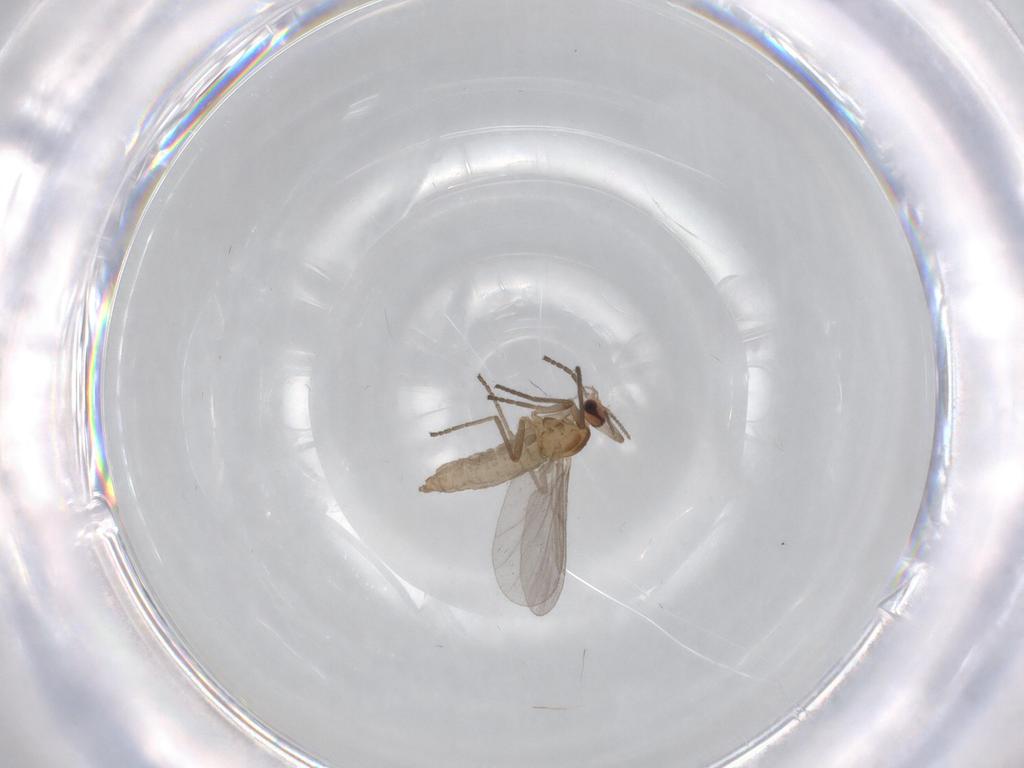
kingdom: Animalia
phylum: Arthropoda
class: Insecta
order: Diptera
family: Cecidomyiidae
